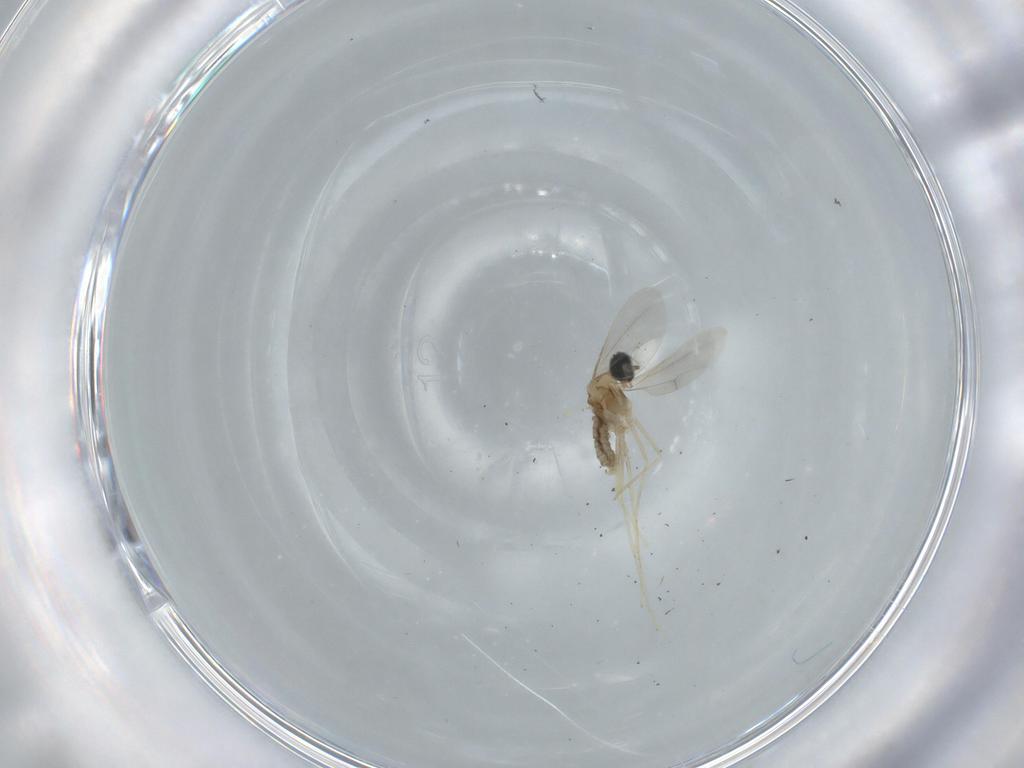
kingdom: Animalia
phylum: Arthropoda
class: Insecta
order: Diptera
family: Cecidomyiidae
